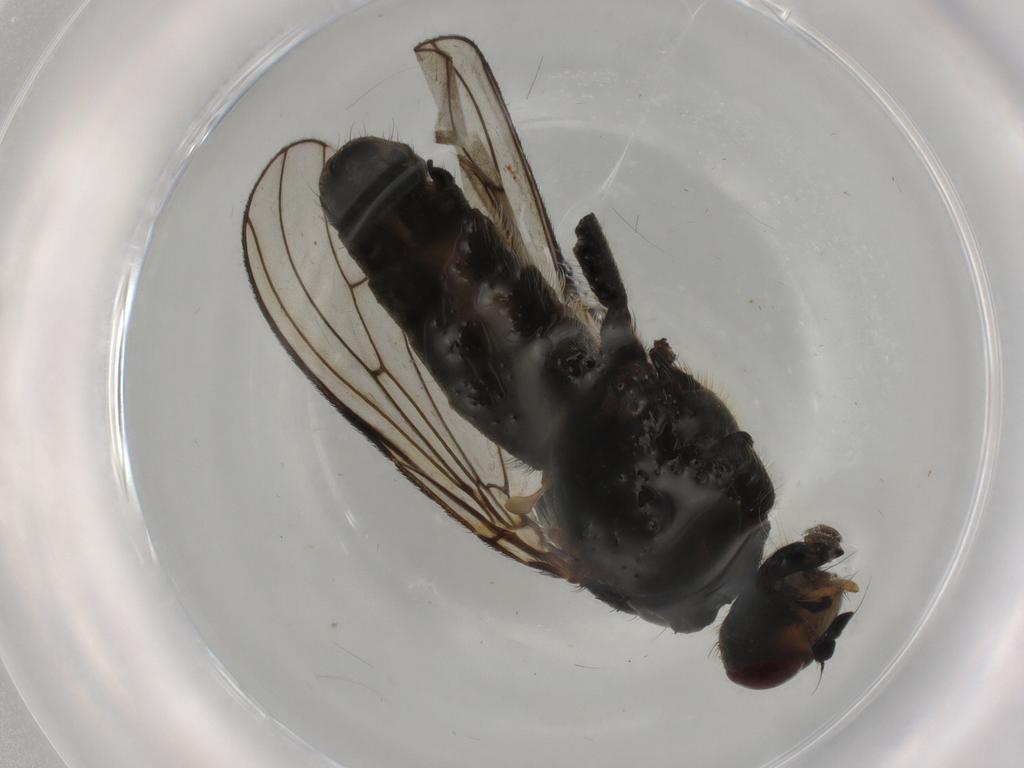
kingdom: Animalia
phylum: Arthropoda
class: Insecta
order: Diptera
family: Scathophagidae
